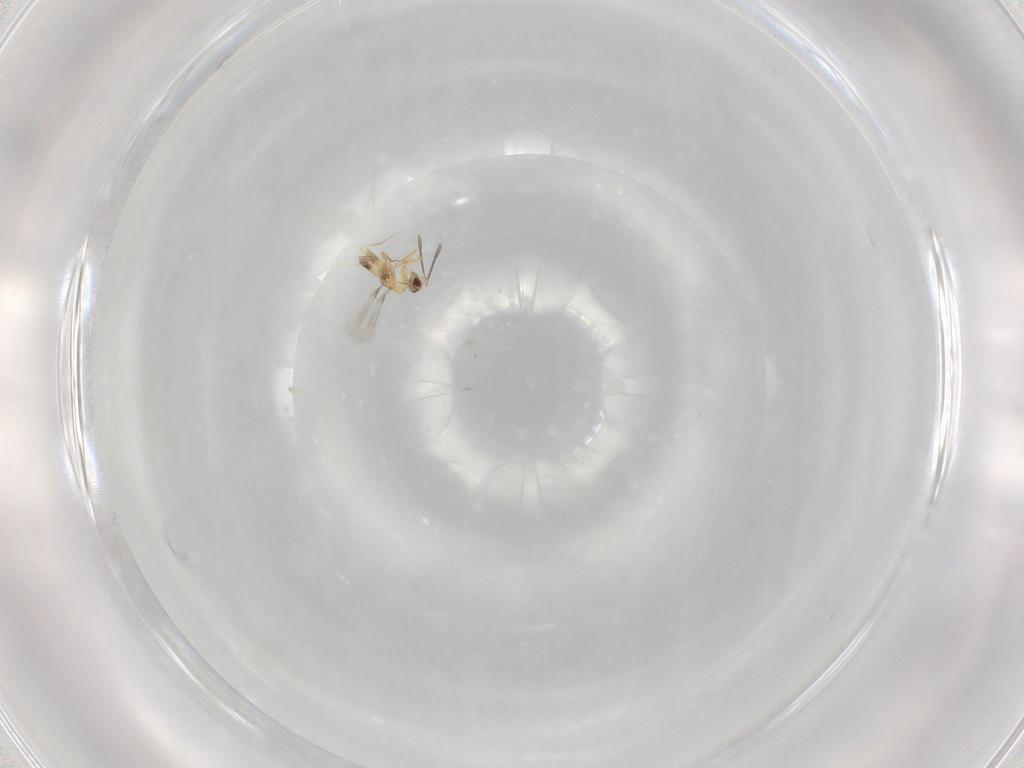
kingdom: Animalia
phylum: Arthropoda
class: Insecta
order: Hymenoptera
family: Mymaridae
